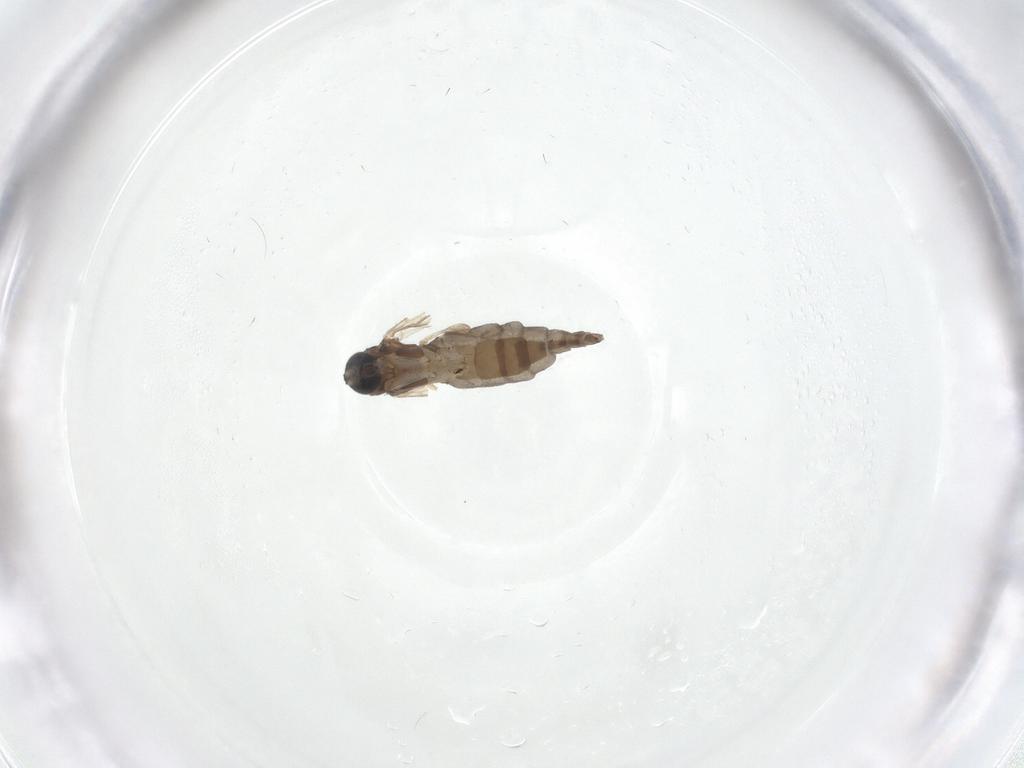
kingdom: Animalia
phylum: Arthropoda
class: Insecta
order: Diptera
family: Sciaridae
